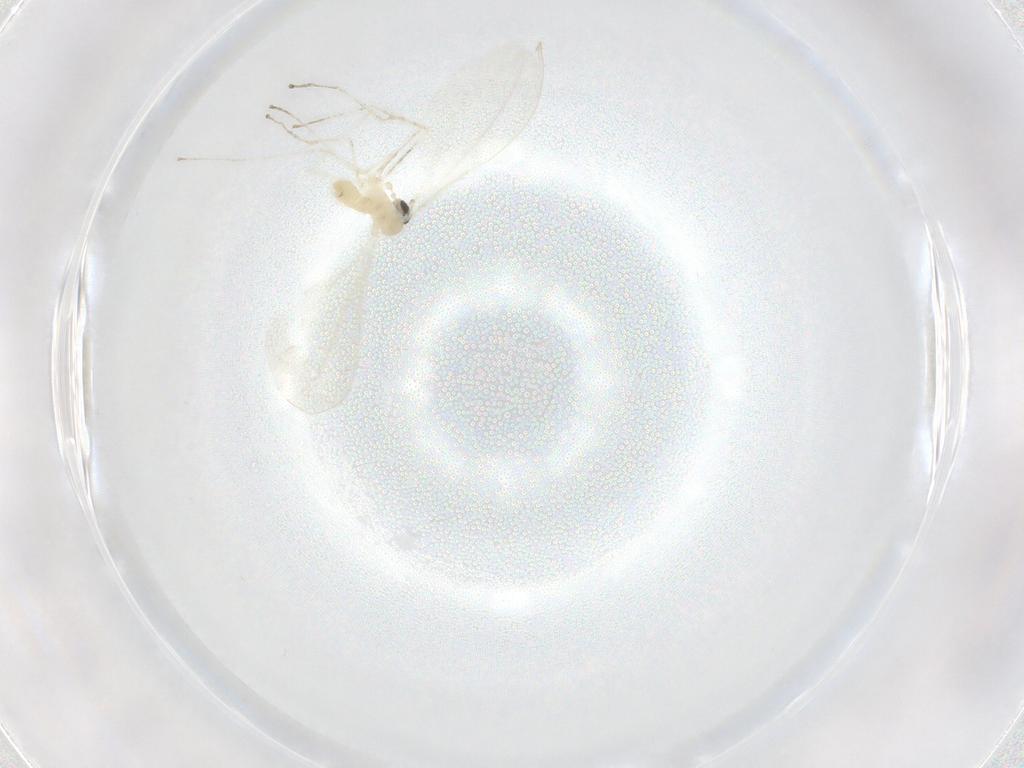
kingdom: Animalia
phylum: Arthropoda
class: Insecta
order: Diptera
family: Cecidomyiidae
